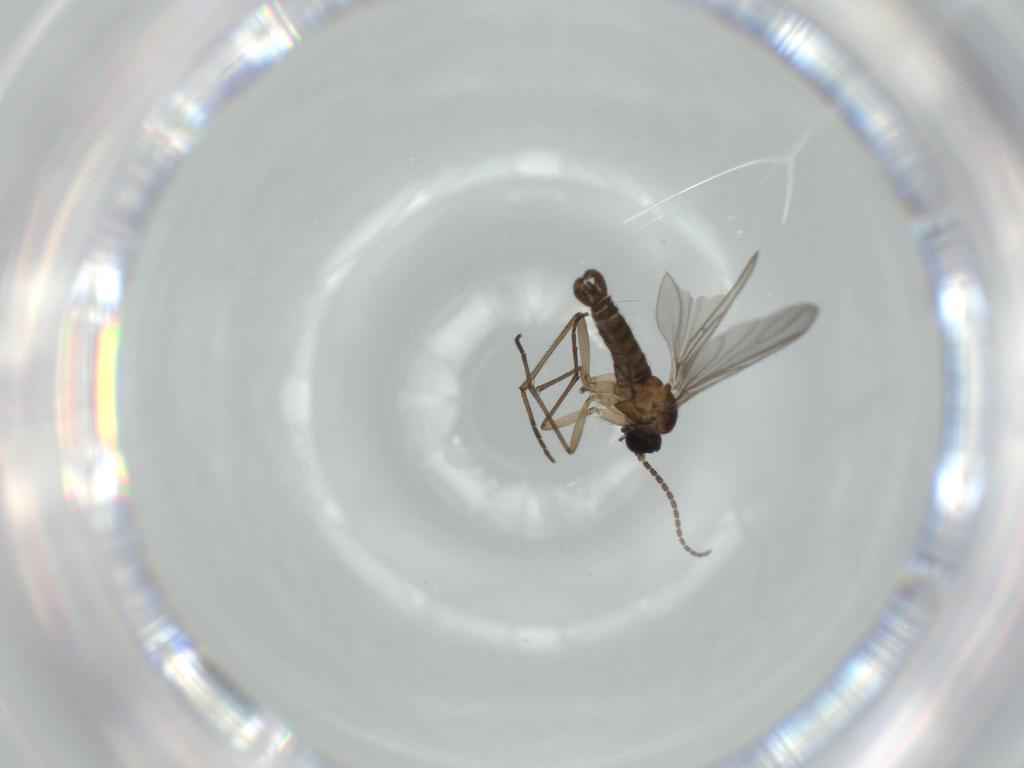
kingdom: Animalia
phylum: Arthropoda
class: Insecta
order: Diptera
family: Sciaridae
